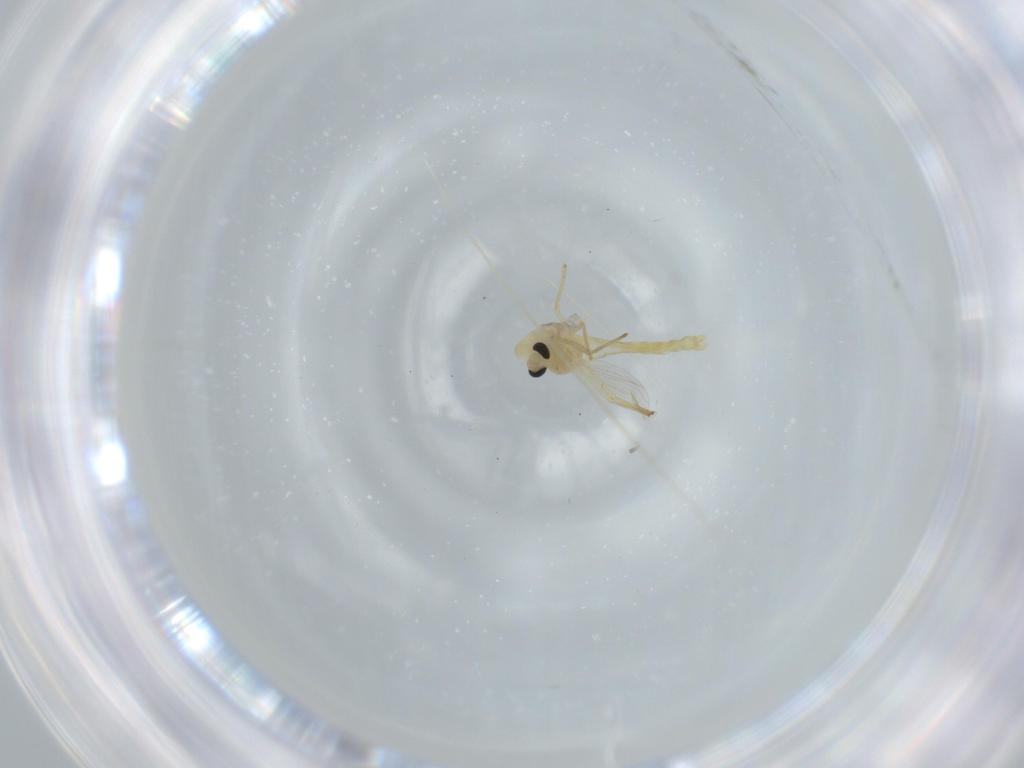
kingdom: Animalia
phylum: Arthropoda
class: Insecta
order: Diptera
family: Chironomidae
